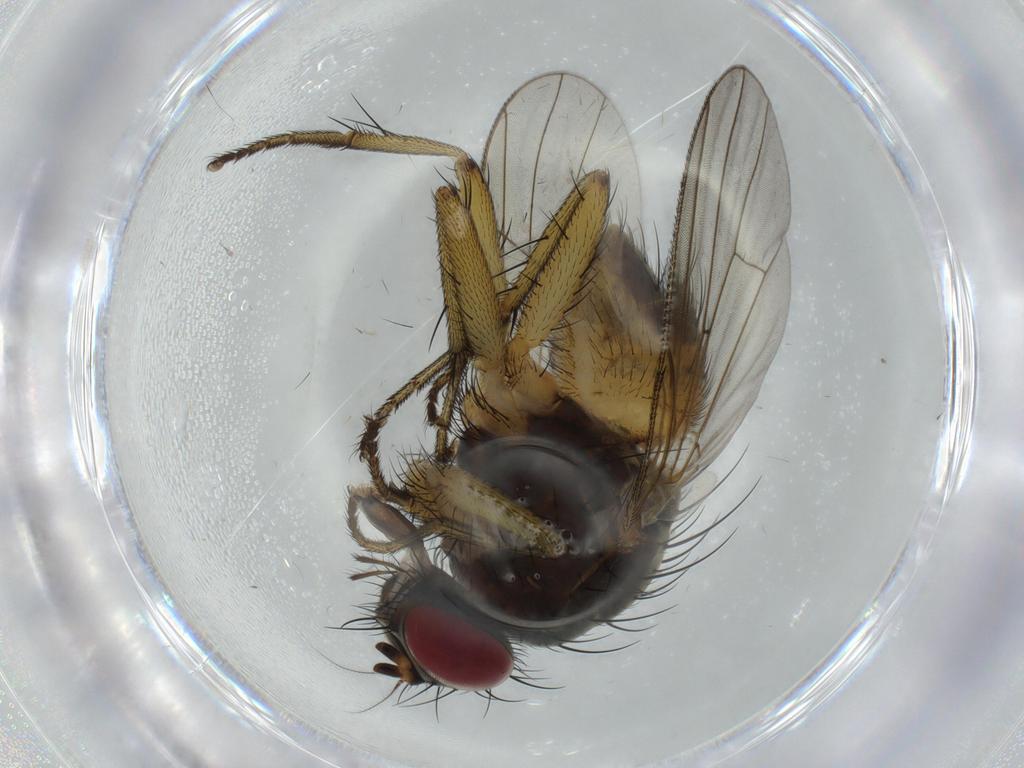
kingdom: Animalia
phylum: Arthropoda
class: Insecta
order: Diptera
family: Muscidae
